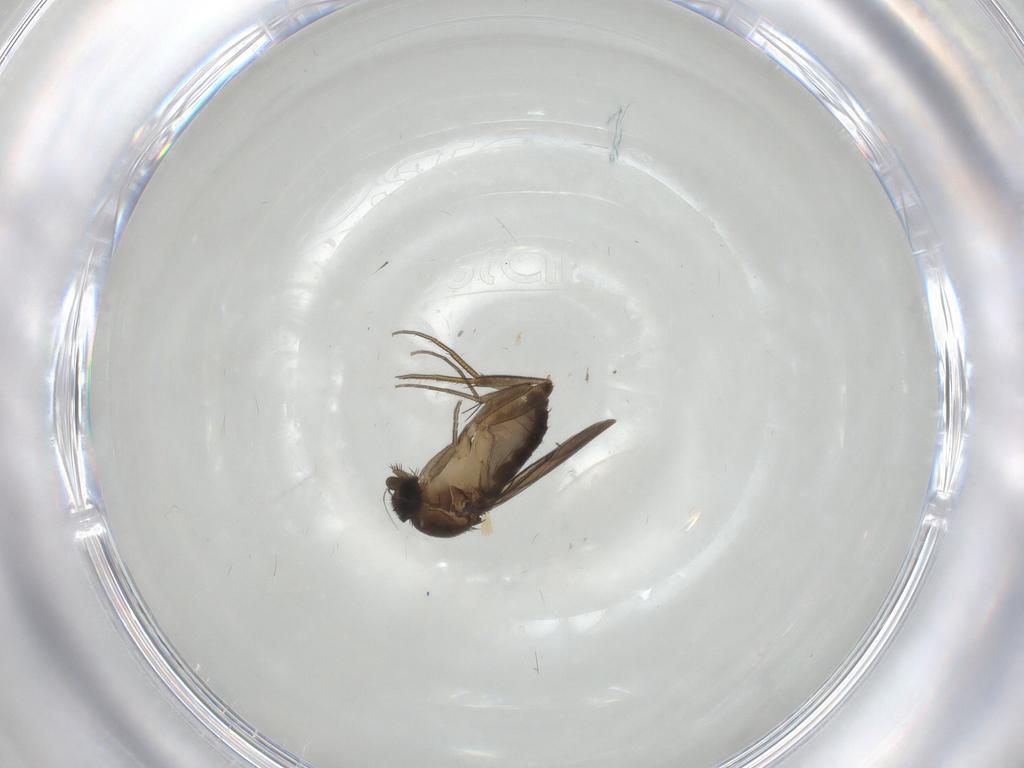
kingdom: Animalia
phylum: Arthropoda
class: Insecta
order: Diptera
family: Phoridae
